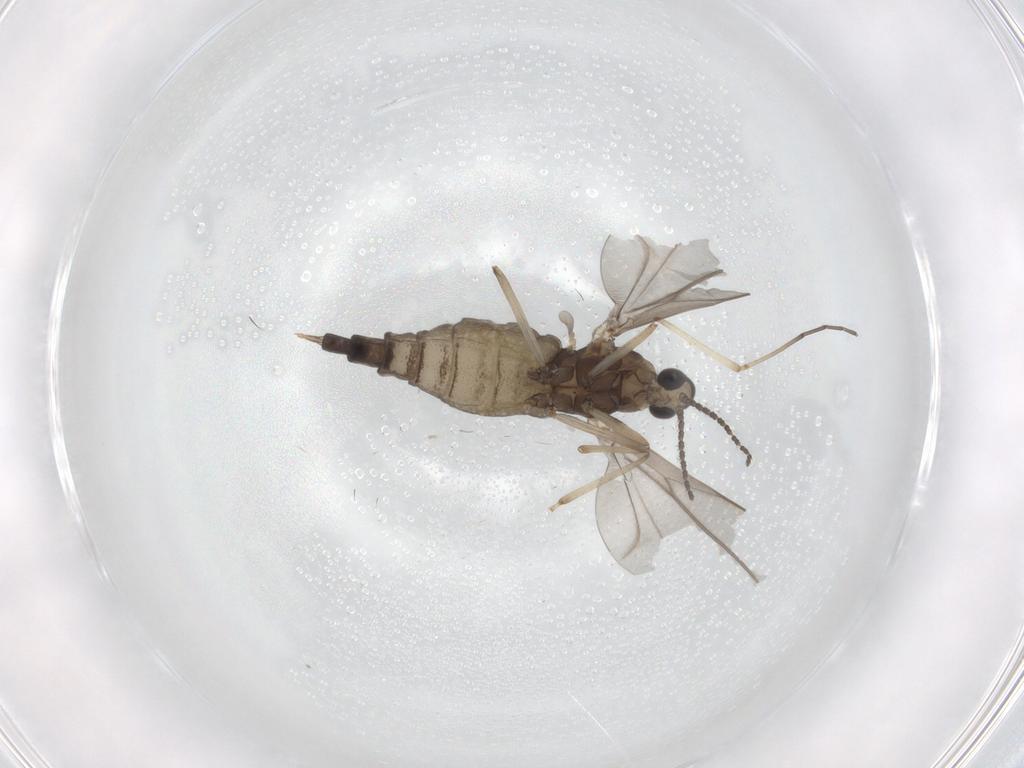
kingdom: Animalia
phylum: Arthropoda
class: Insecta
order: Diptera
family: Cecidomyiidae
